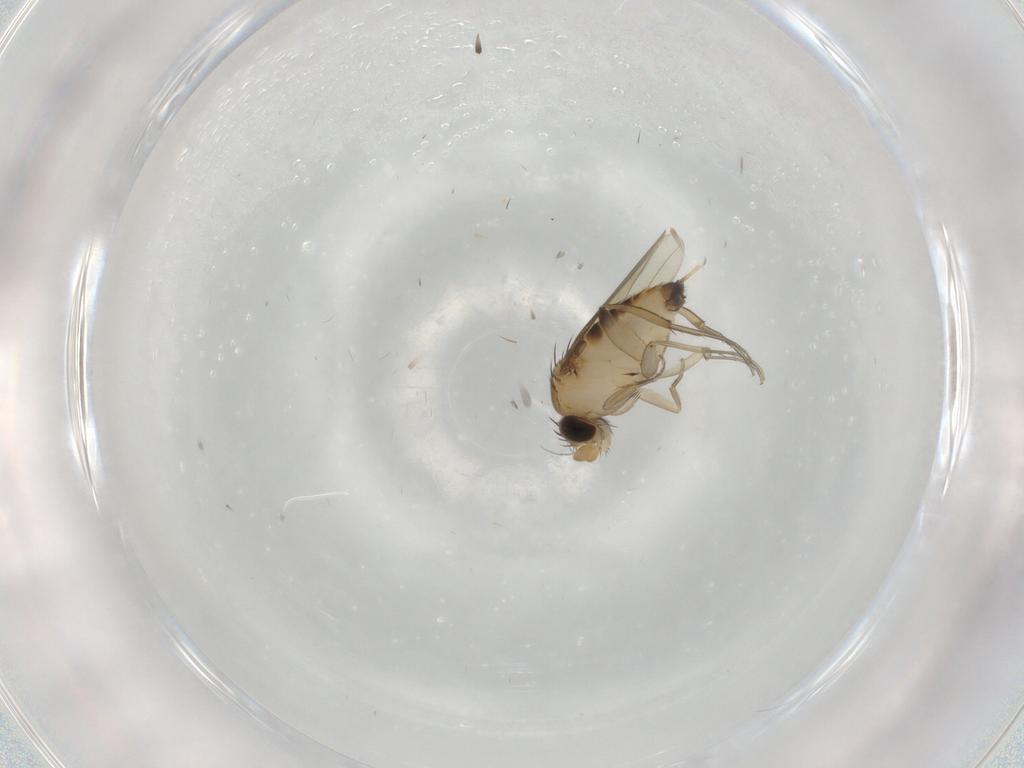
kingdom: Animalia
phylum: Arthropoda
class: Insecta
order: Diptera
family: Phoridae
